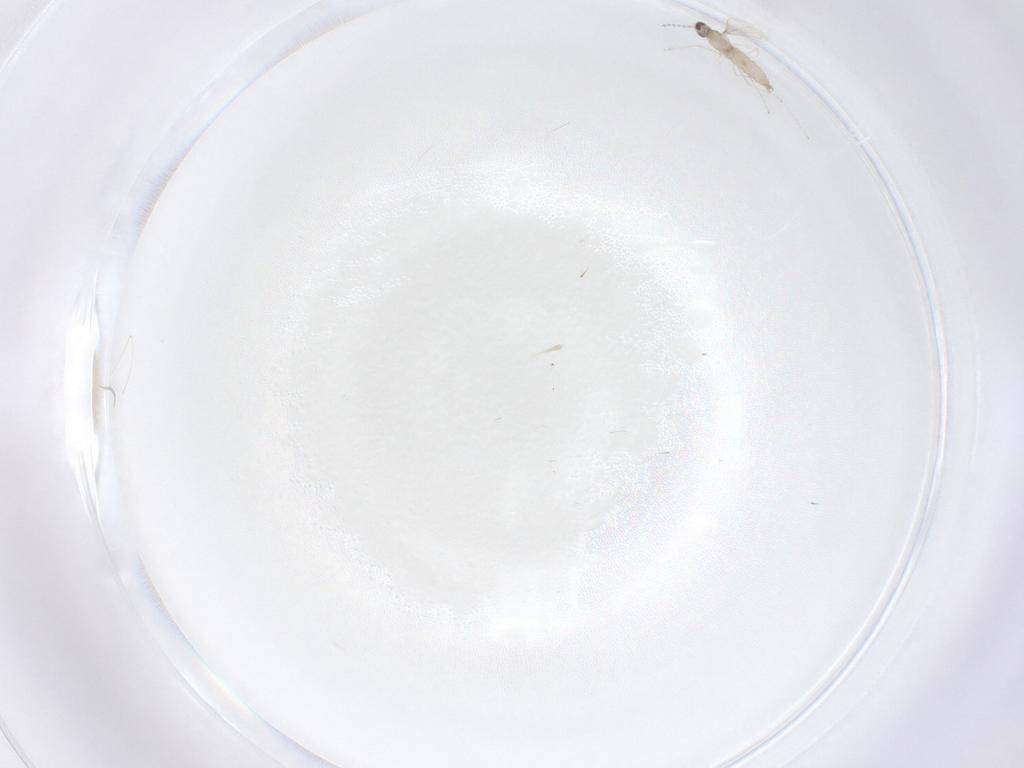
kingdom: Animalia
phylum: Arthropoda
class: Insecta
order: Diptera
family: Cecidomyiidae
